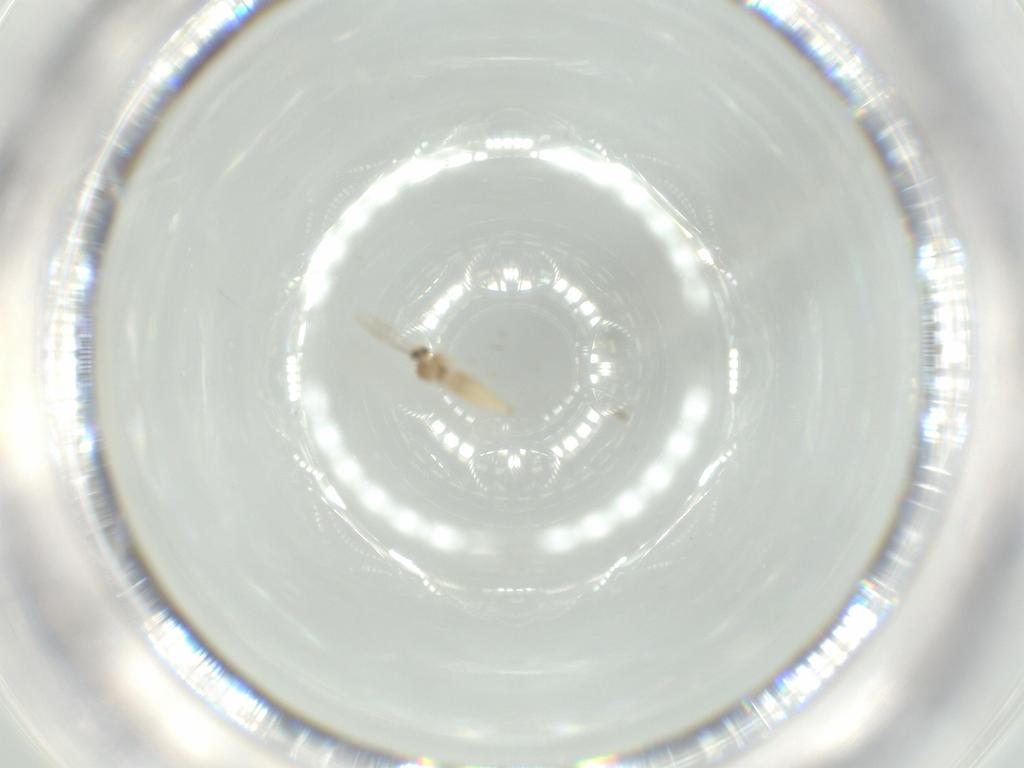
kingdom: Animalia
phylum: Arthropoda
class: Insecta
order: Diptera
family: Cecidomyiidae
